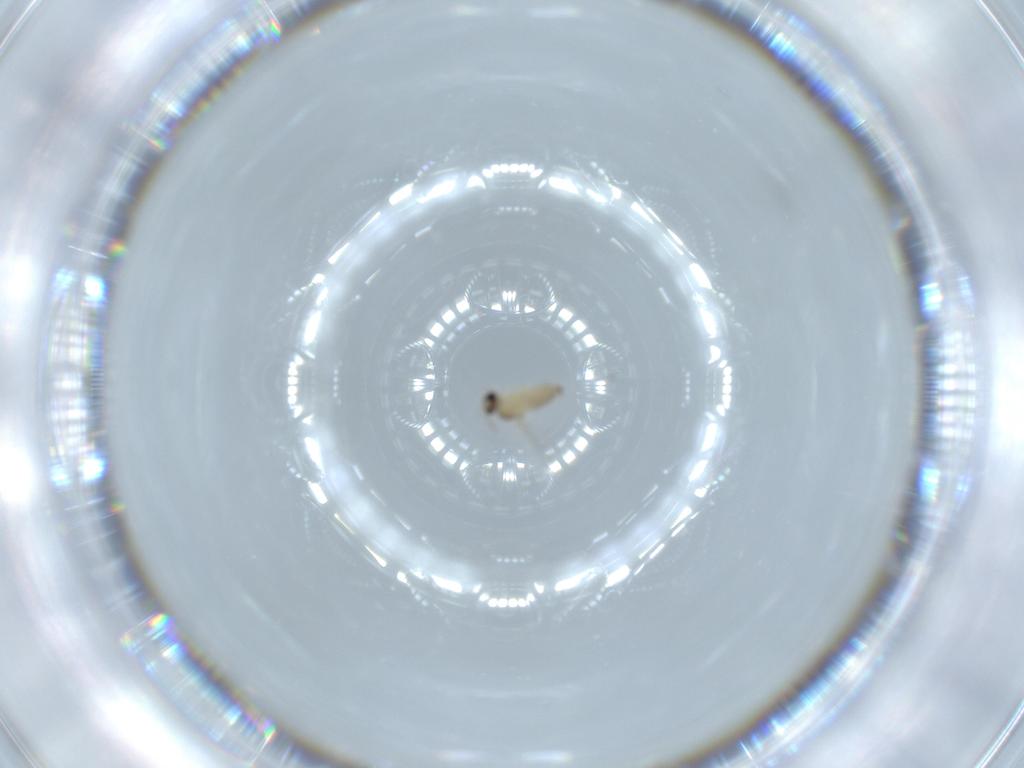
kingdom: Animalia
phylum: Arthropoda
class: Insecta
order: Diptera
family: Cecidomyiidae
